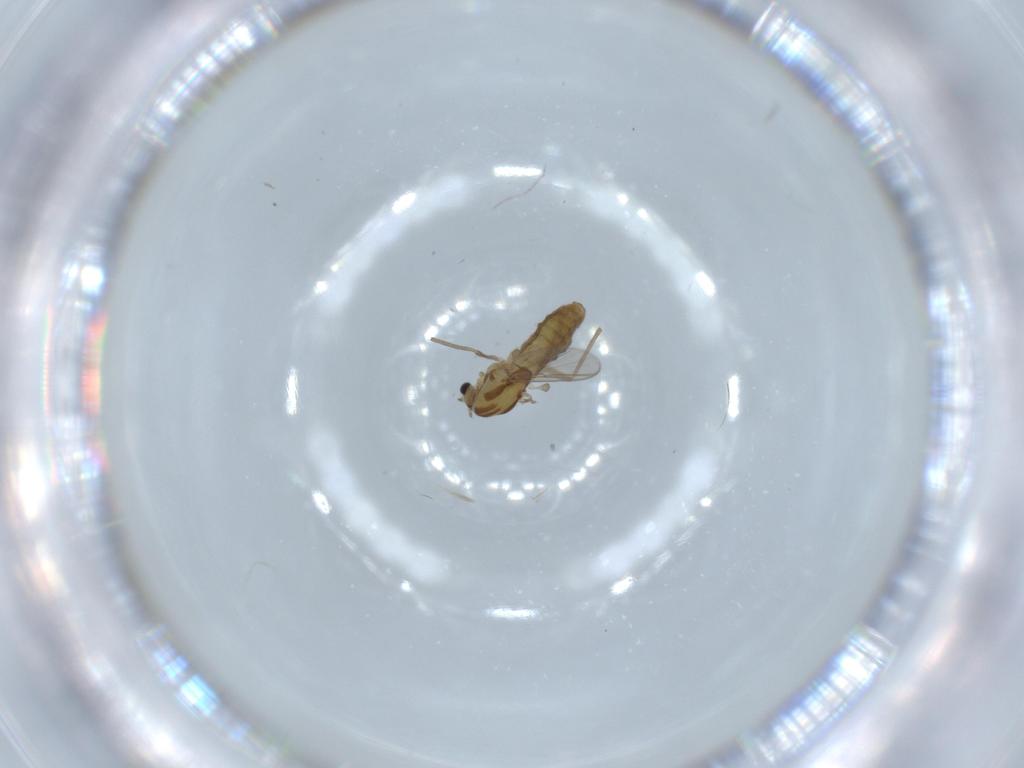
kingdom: Animalia
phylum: Arthropoda
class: Insecta
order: Diptera
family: Chironomidae
